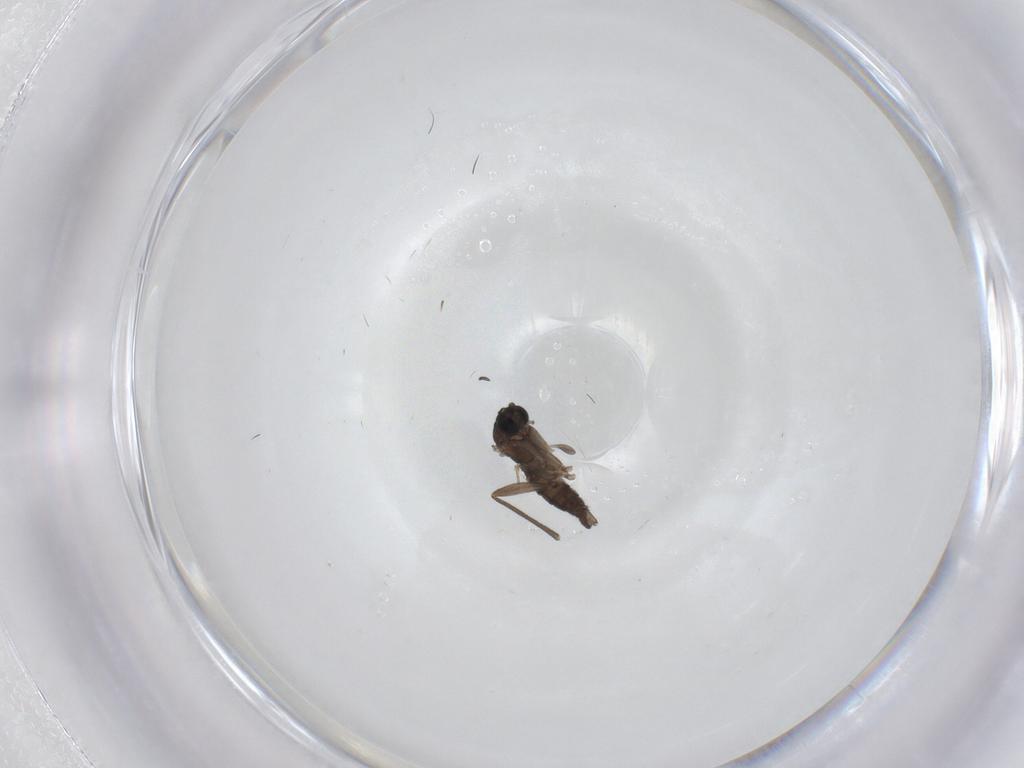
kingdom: Animalia
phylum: Arthropoda
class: Insecta
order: Diptera
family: Sciaridae
